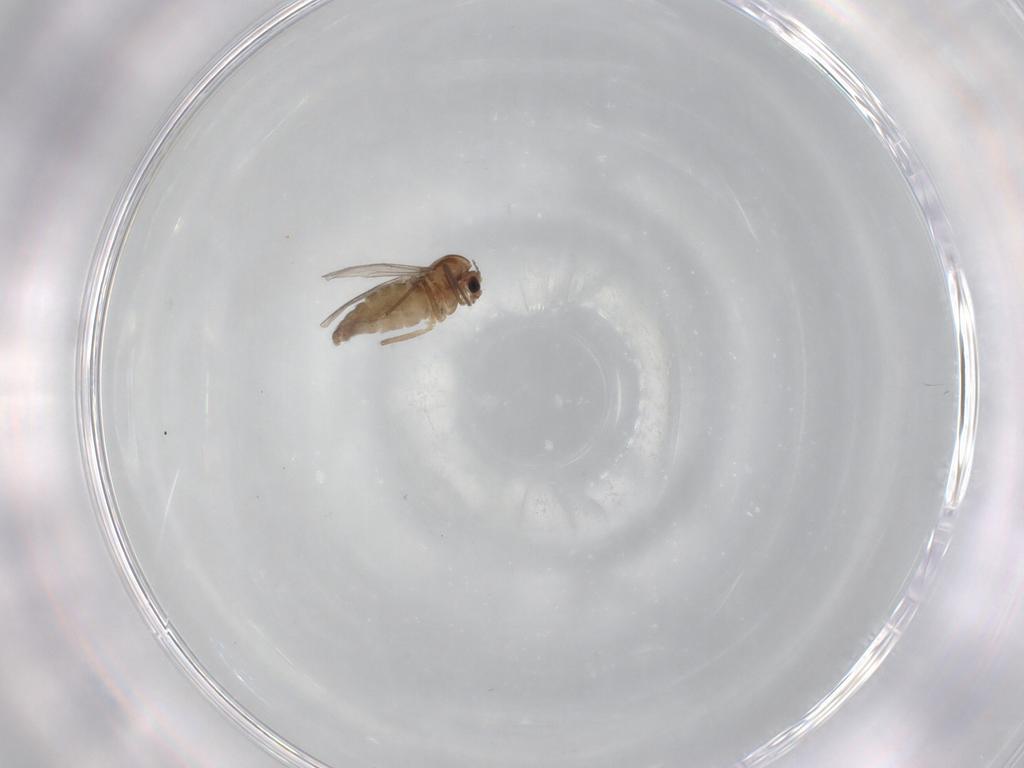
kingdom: Animalia
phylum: Arthropoda
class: Insecta
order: Diptera
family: Chironomidae
